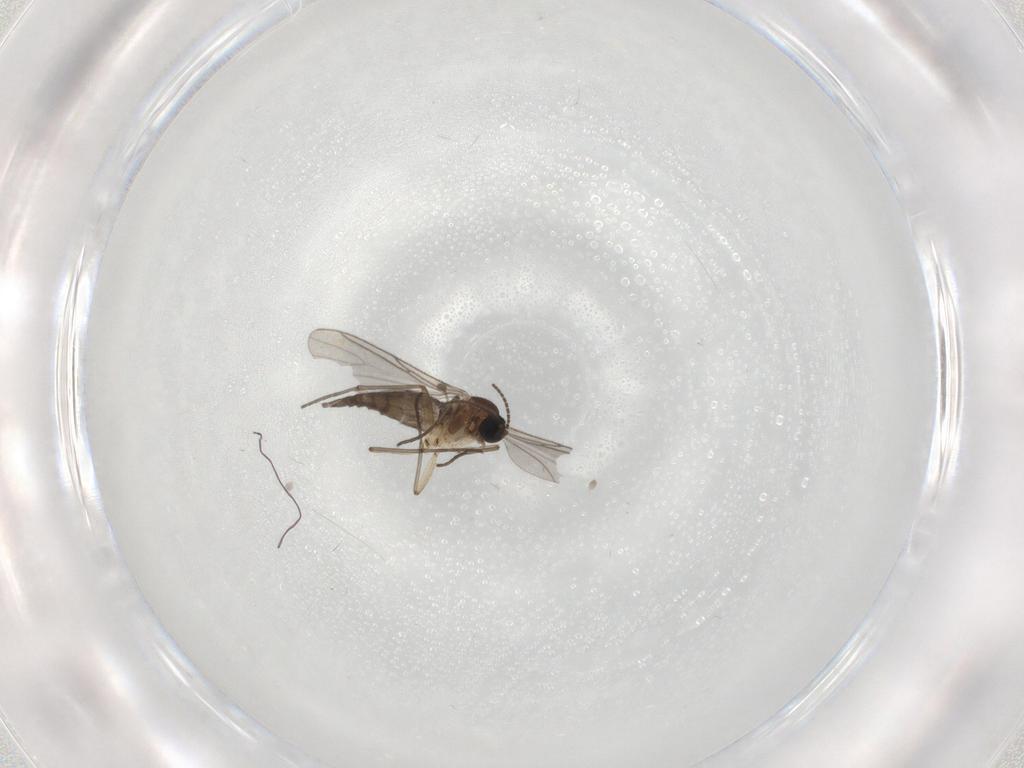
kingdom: Animalia
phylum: Arthropoda
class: Insecta
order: Diptera
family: Sciaridae
